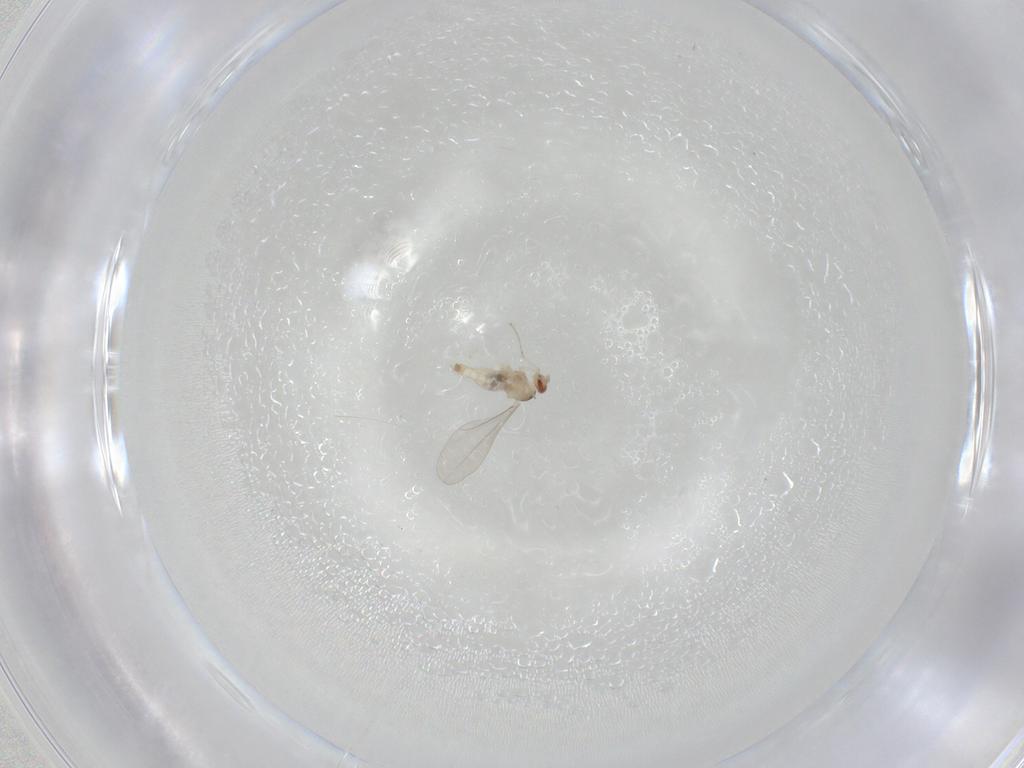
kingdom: Animalia
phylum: Arthropoda
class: Insecta
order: Diptera
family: Cecidomyiidae
